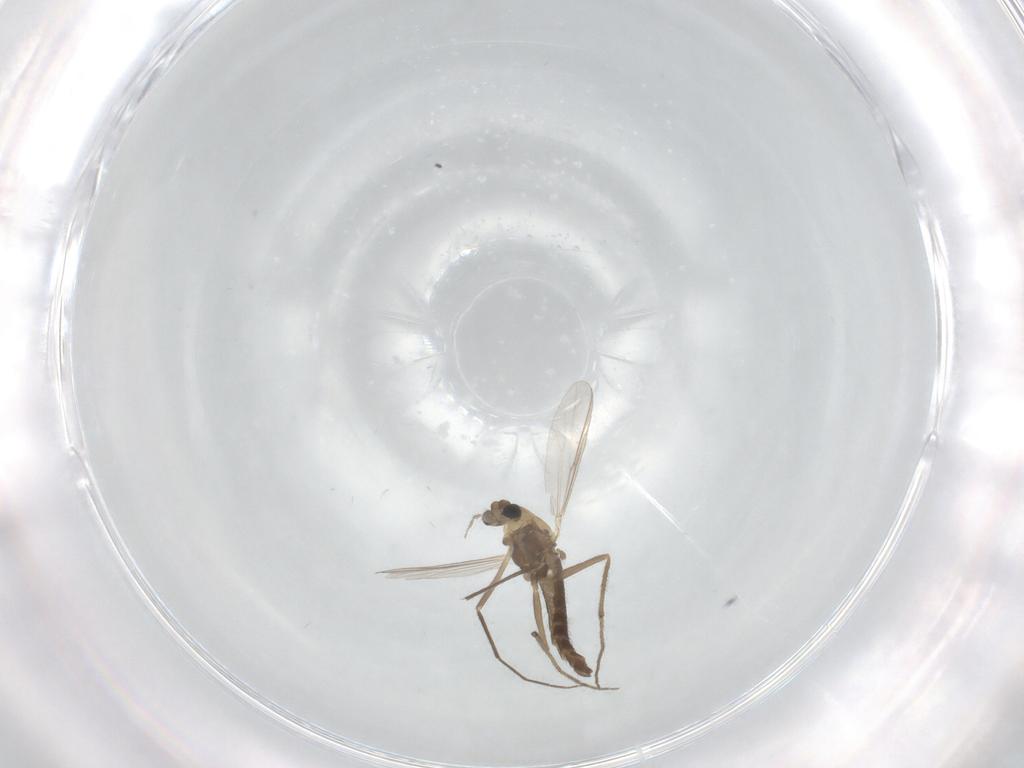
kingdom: Animalia
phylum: Arthropoda
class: Insecta
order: Diptera
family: Chironomidae
